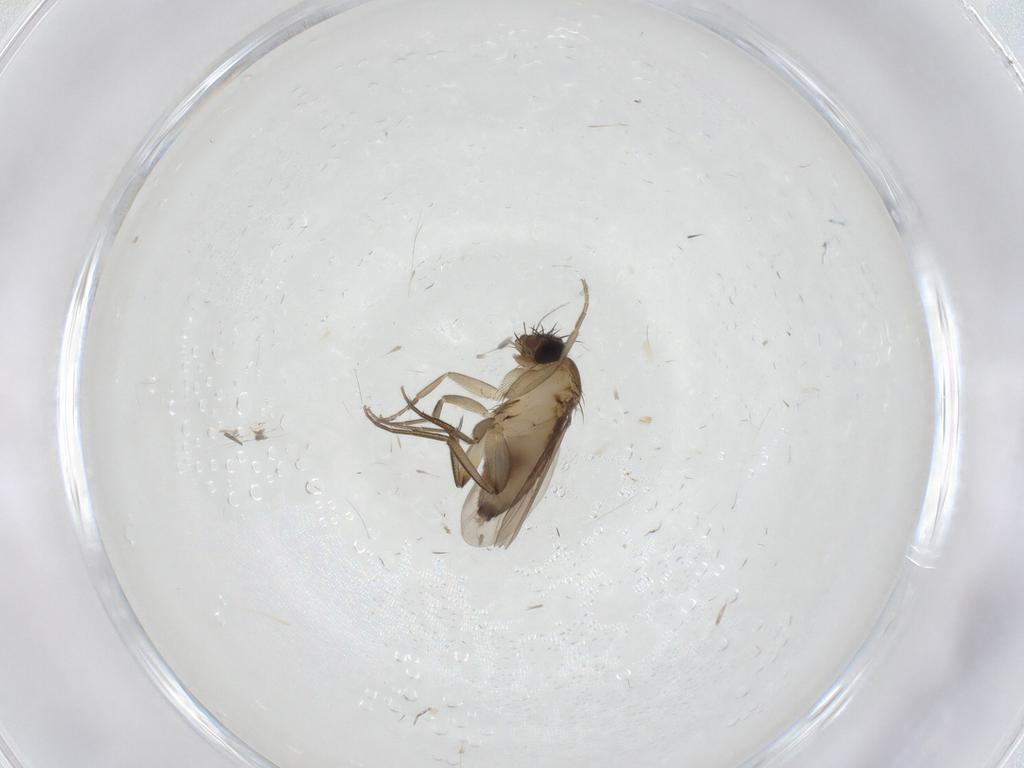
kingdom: Animalia
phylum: Arthropoda
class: Insecta
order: Diptera
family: Phoridae
